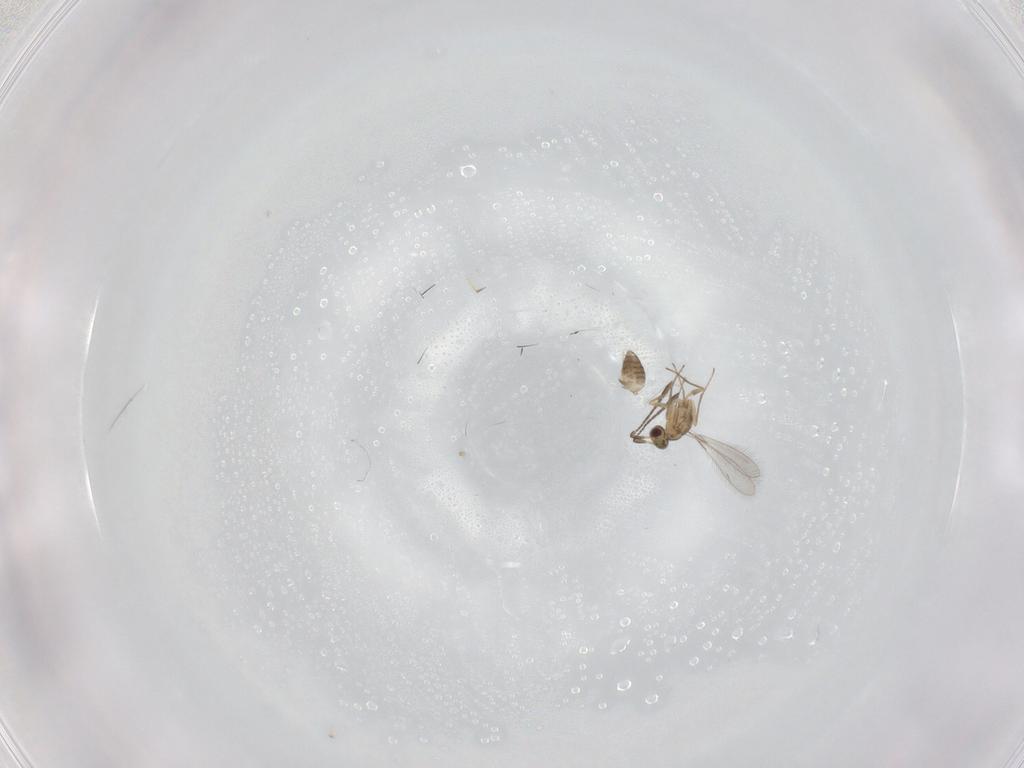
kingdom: Animalia
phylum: Arthropoda
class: Insecta
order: Hymenoptera
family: Mymaridae
